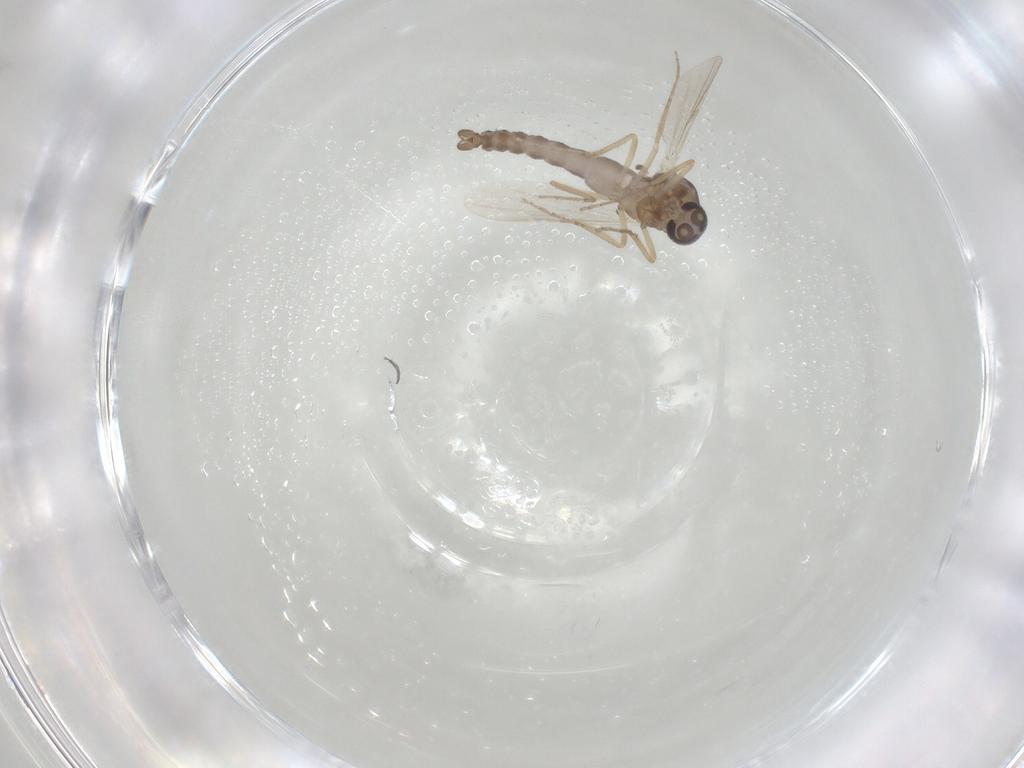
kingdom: Animalia
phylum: Arthropoda
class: Insecta
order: Diptera
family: Ceratopogonidae
